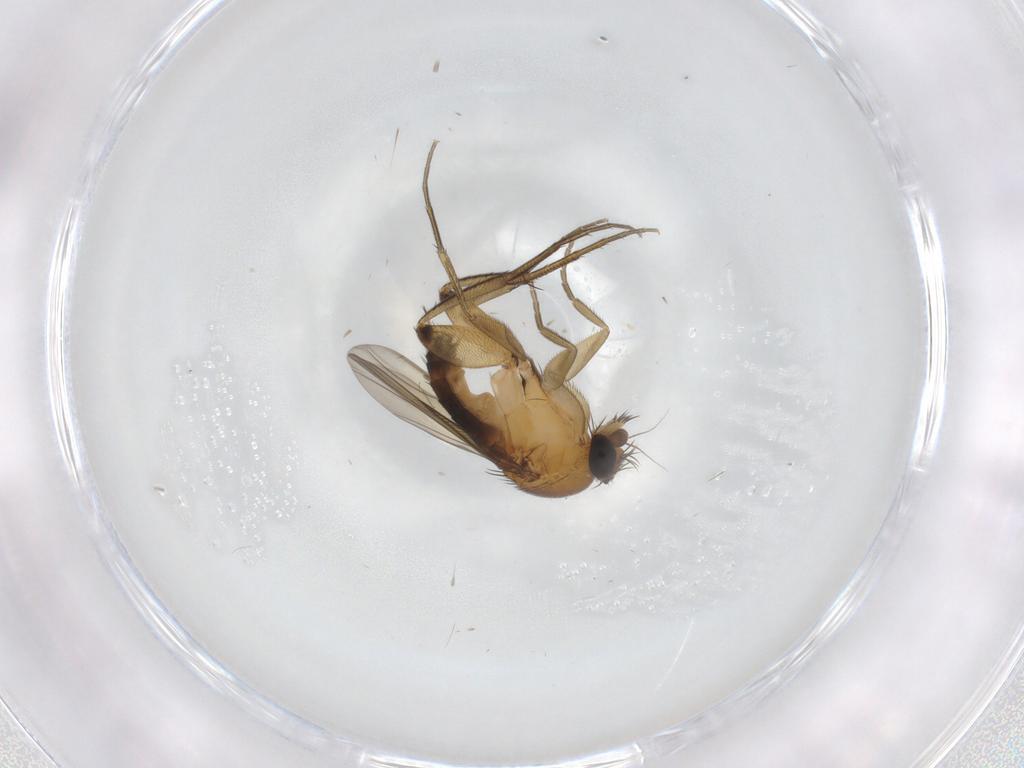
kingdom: Animalia
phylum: Arthropoda
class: Insecta
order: Diptera
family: Phoridae
